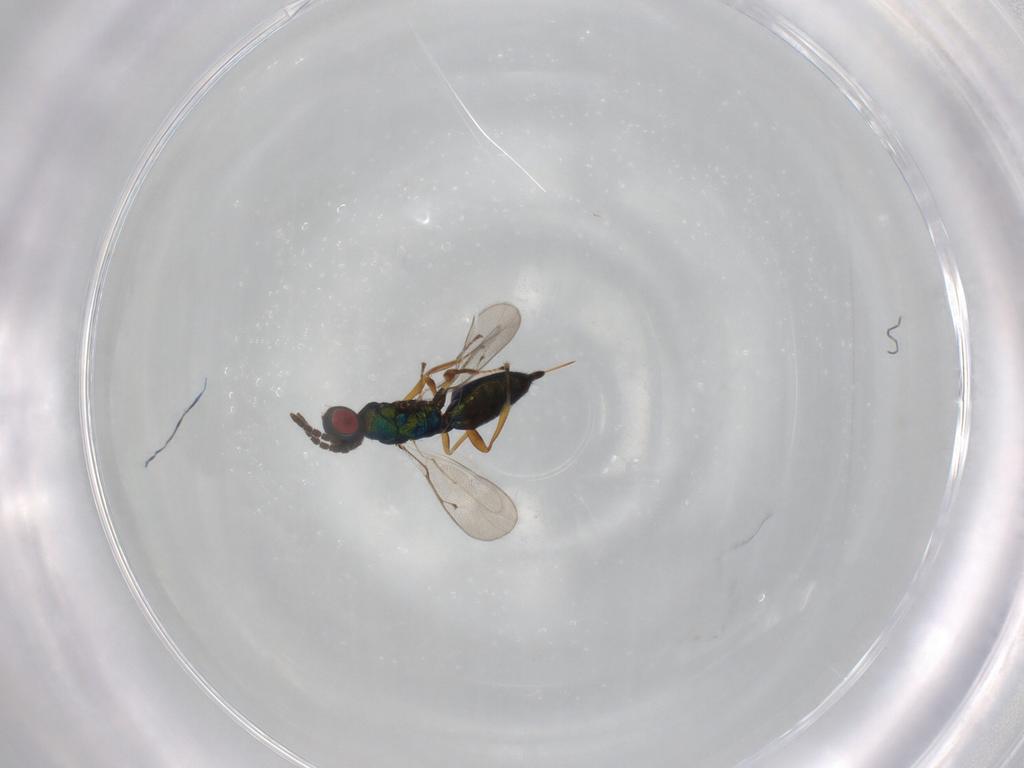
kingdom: Animalia
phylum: Arthropoda
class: Insecta
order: Hymenoptera
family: Pteromalidae
